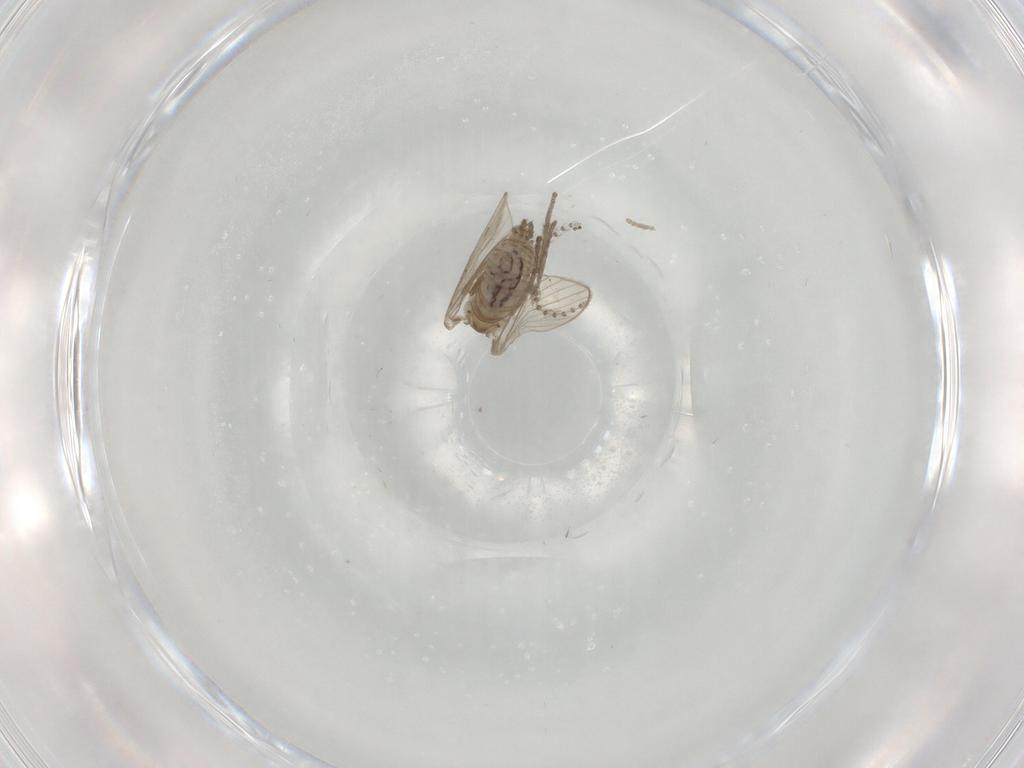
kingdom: Animalia
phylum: Arthropoda
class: Insecta
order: Diptera
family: Psychodidae
